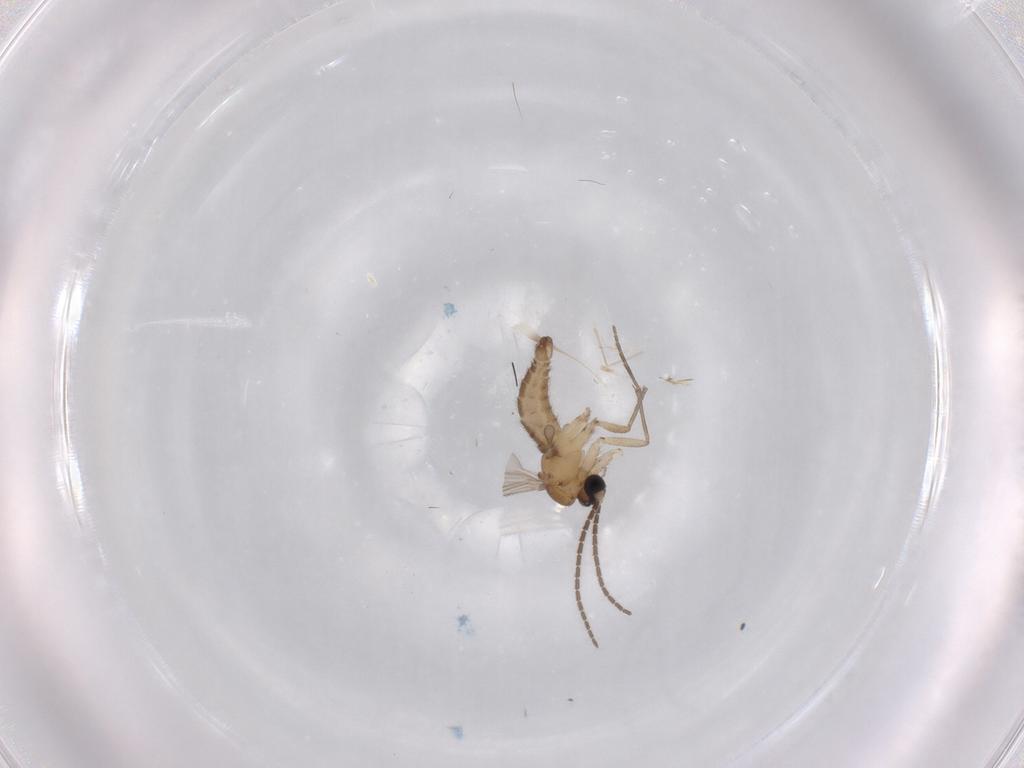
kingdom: Animalia
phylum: Arthropoda
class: Insecta
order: Diptera
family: Sciaridae
